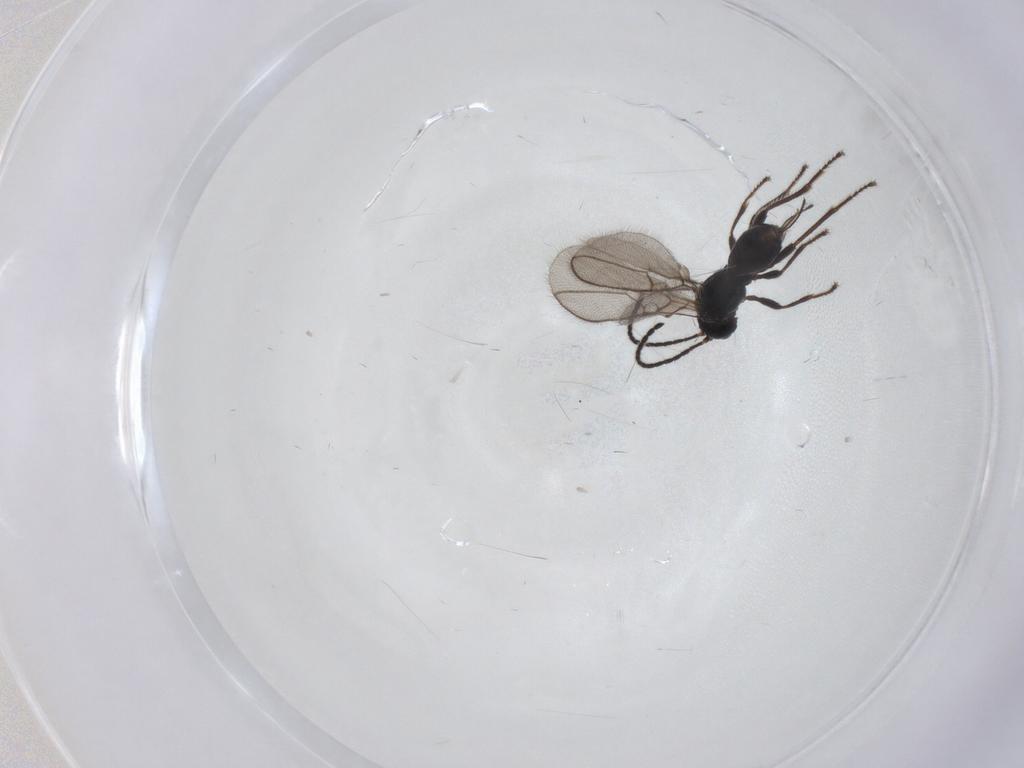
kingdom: Animalia
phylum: Arthropoda
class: Insecta
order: Hymenoptera
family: Braconidae
